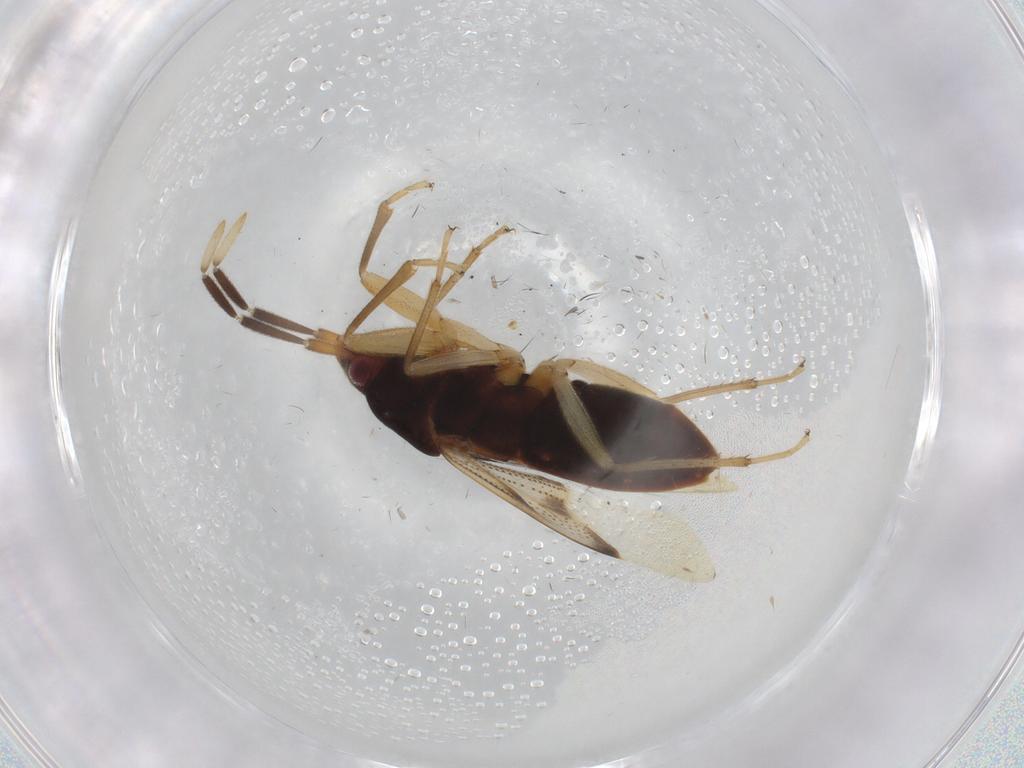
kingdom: Animalia
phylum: Arthropoda
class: Insecta
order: Hemiptera
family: Rhyparochromidae
